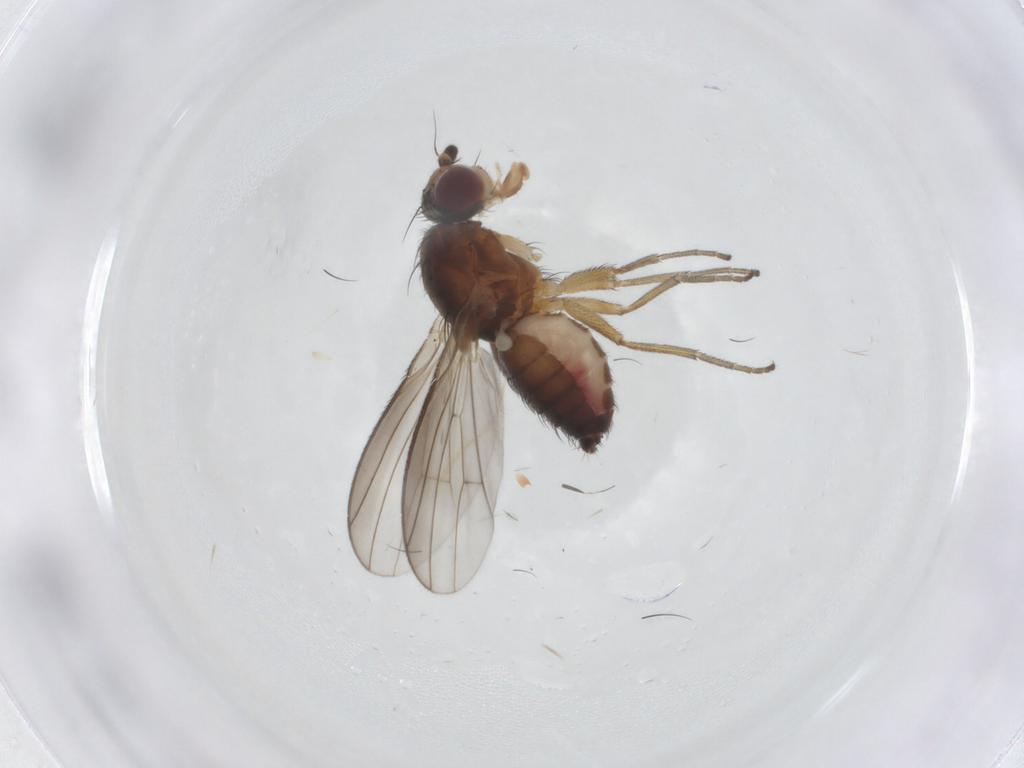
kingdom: Animalia
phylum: Arthropoda
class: Insecta
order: Diptera
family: Heleomyzidae
